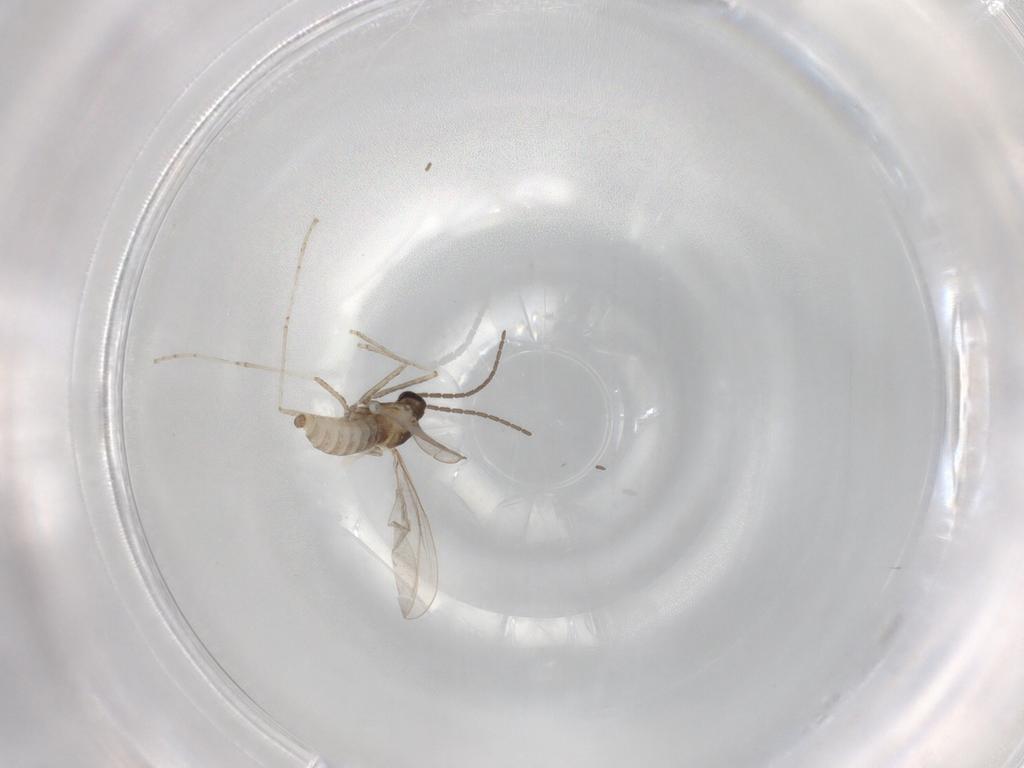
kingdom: Animalia
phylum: Arthropoda
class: Insecta
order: Diptera
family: Cecidomyiidae
